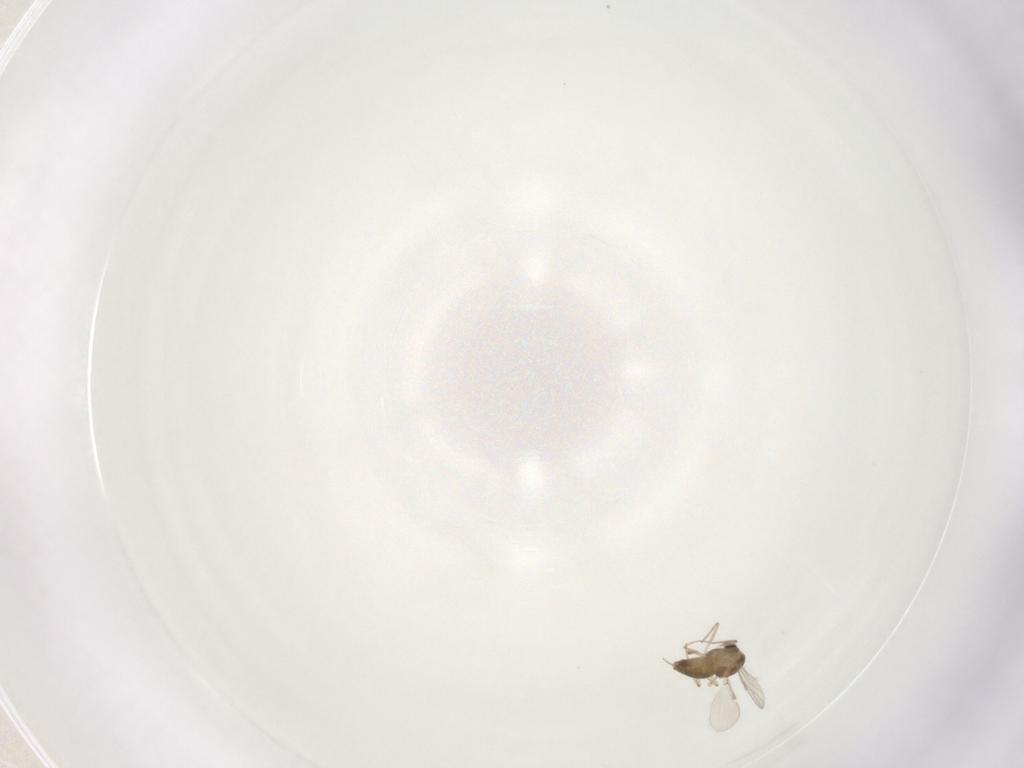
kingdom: Animalia
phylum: Arthropoda
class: Insecta
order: Diptera
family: Chironomidae
